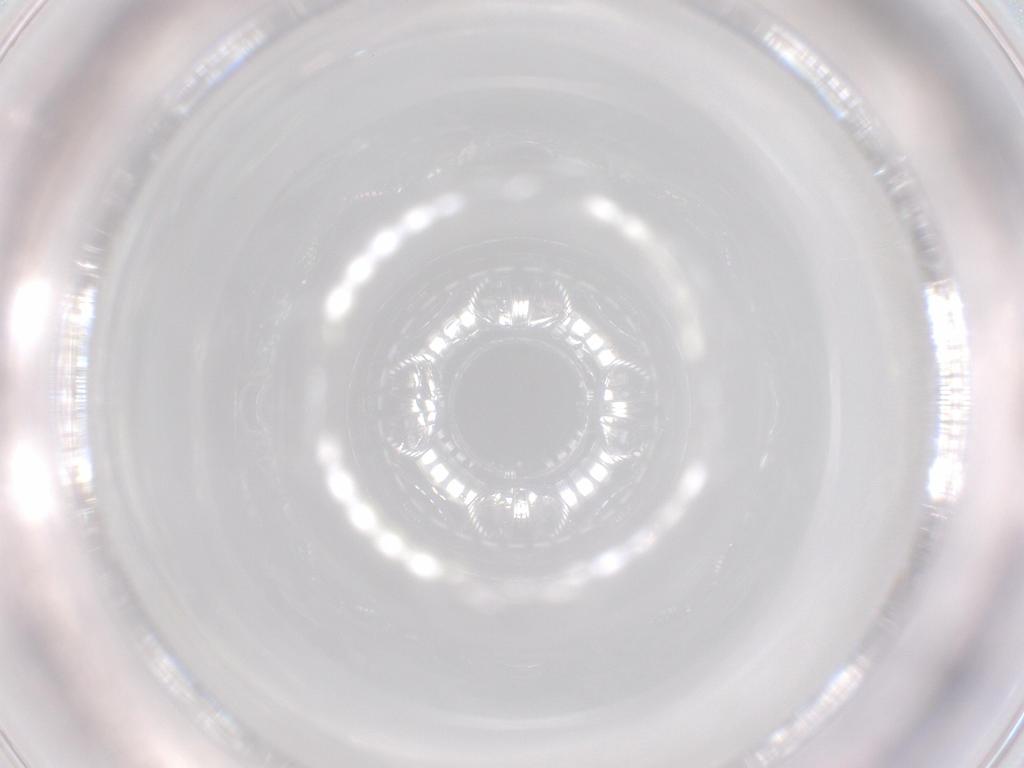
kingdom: Animalia
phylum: Arthropoda
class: Insecta
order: Diptera
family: Chironomidae
